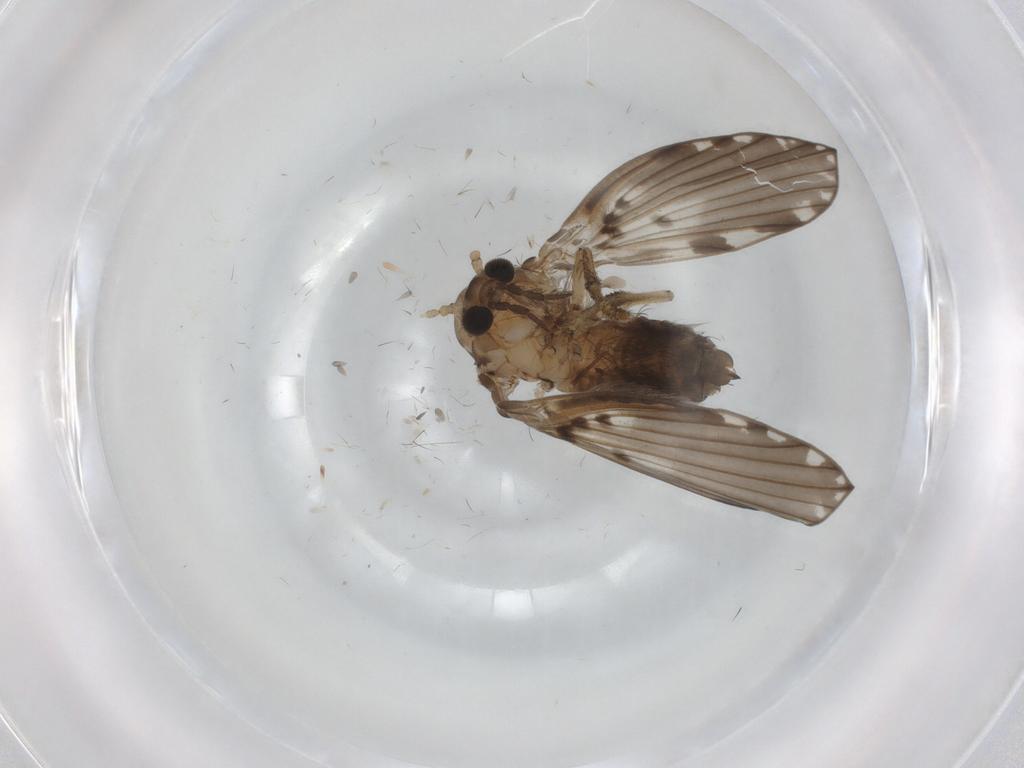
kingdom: Animalia
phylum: Arthropoda
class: Insecta
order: Diptera
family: Psychodidae
